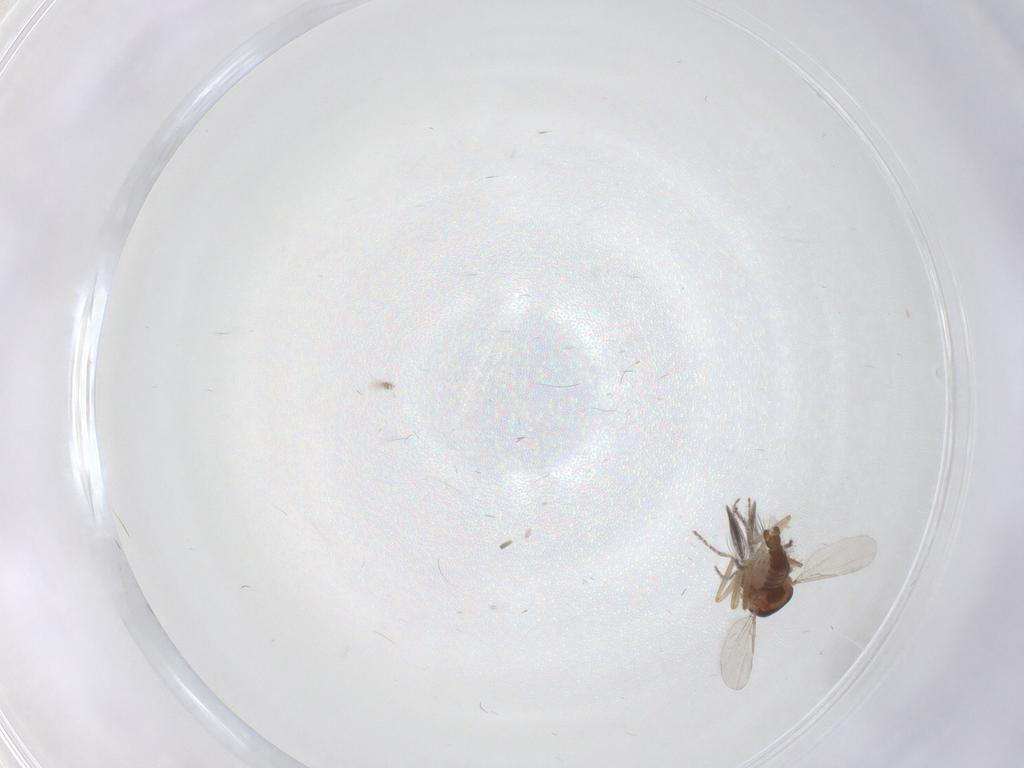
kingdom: Animalia
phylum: Arthropoda
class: Insecta
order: Diptera
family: Ceratopogonidae
